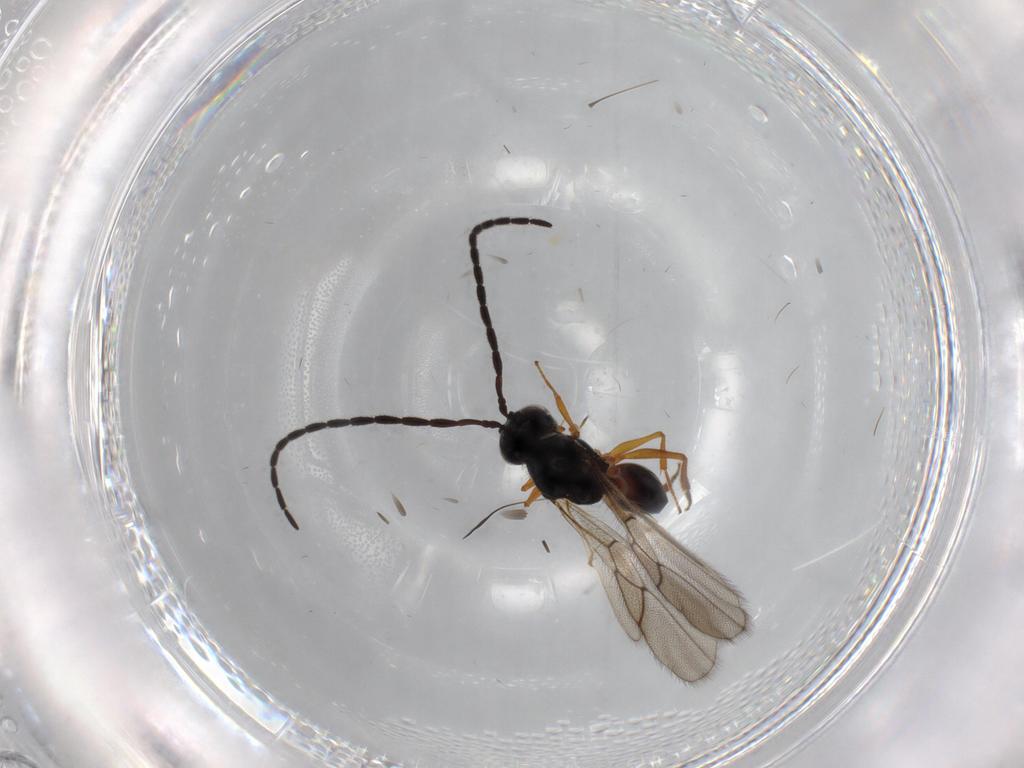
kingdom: Animalia
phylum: Arthropoda
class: Insecta
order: Hymenoptera
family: Figitidae
